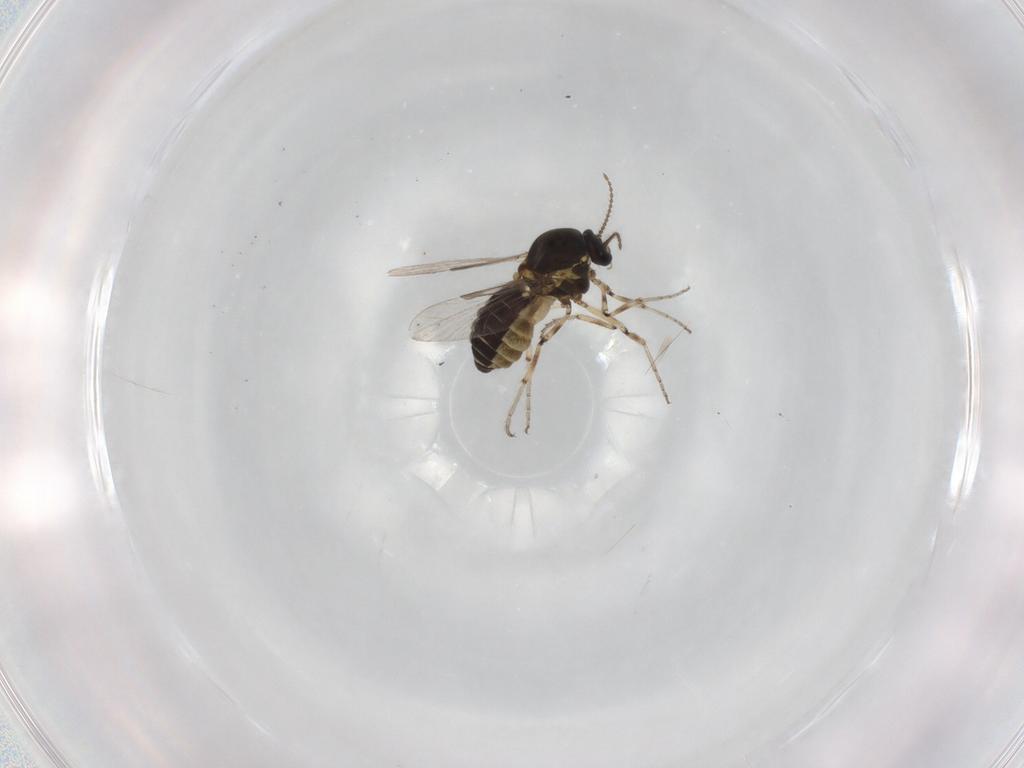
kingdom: Animalia
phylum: Arthropoda
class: Insecta
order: Diptera
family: Ceratopogonidae
